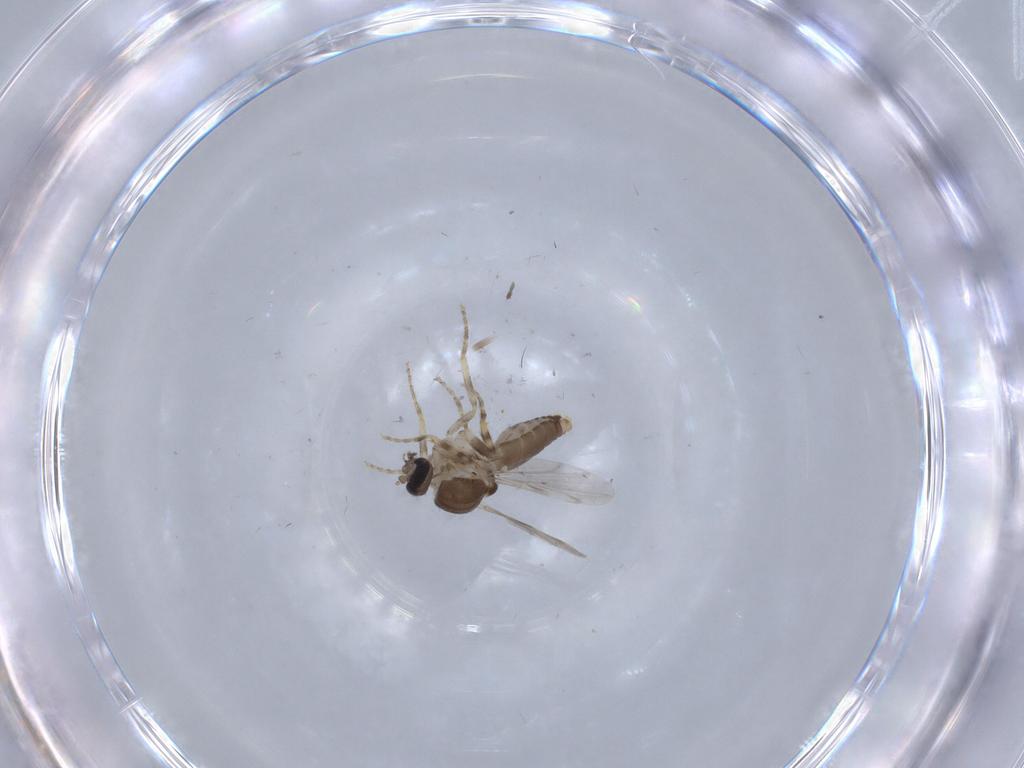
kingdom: Animalia
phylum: Arthropoda
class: Insecta
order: Diptera
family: Ceratopogonidae
